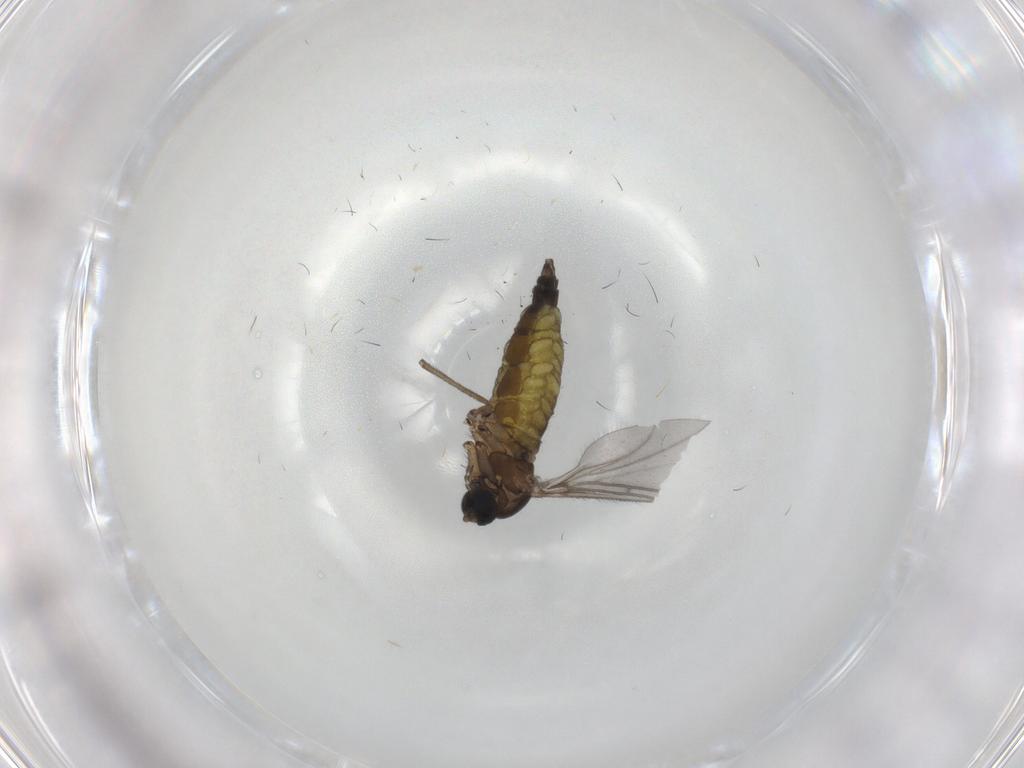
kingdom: Animalia
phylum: Arthropoda
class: Insecta
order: Diptera
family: Sciaridae
